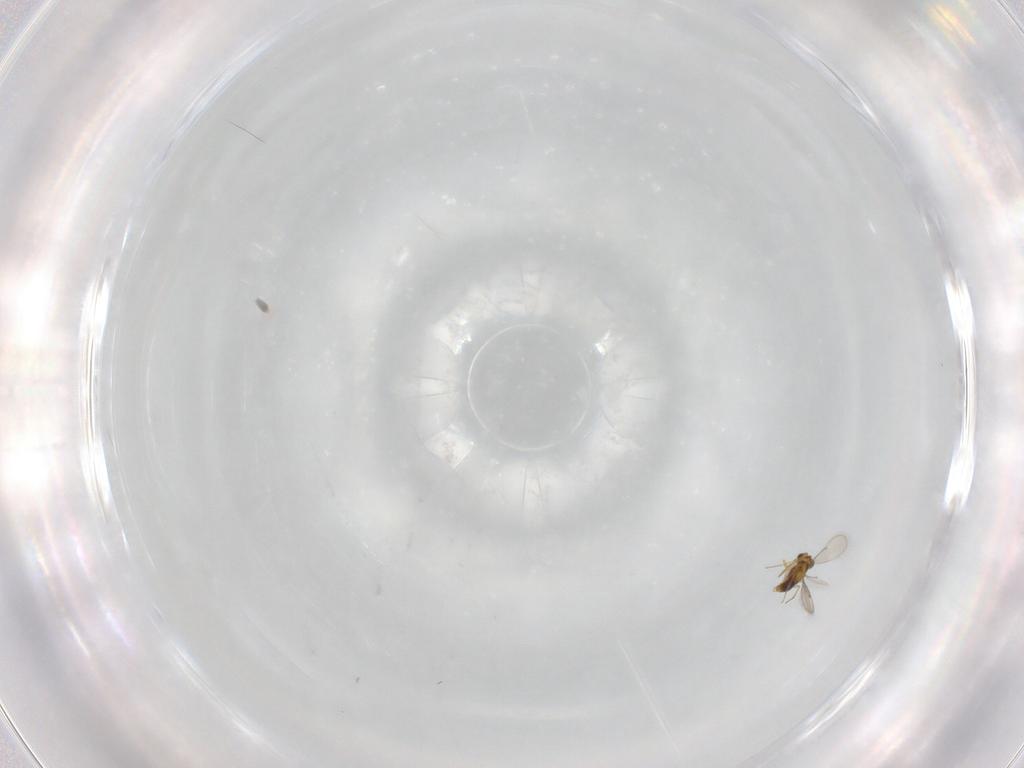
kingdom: Animalia
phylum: Arthropoda
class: Insecta
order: Hymenoptera
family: Aphelinidae
